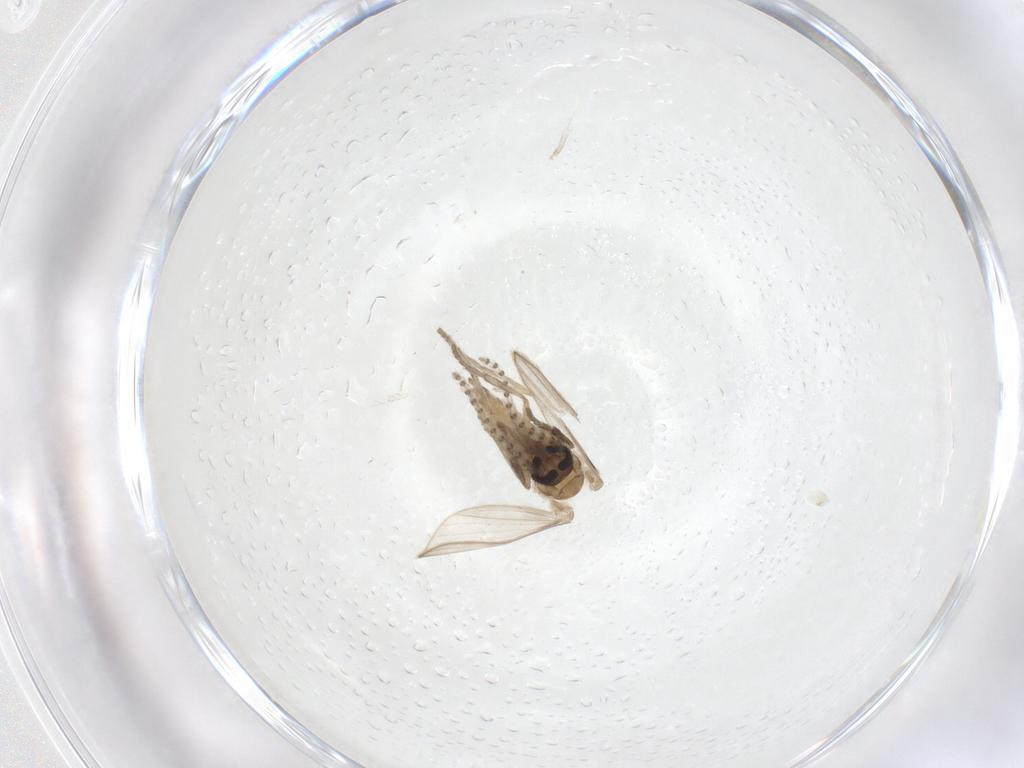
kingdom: Animalia
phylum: Arthropoda
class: Insecta
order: Diptera
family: Psychodidae
